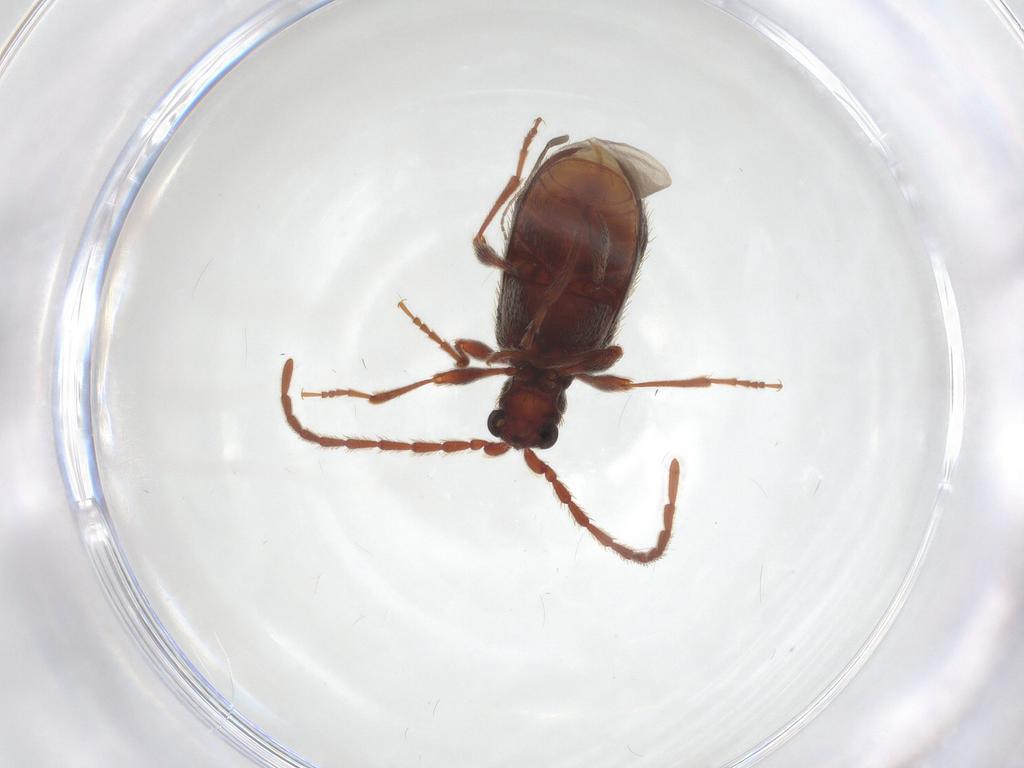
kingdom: Animalia
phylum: Arthropoda
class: Insecta
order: Coleoptera
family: Ptinidae
